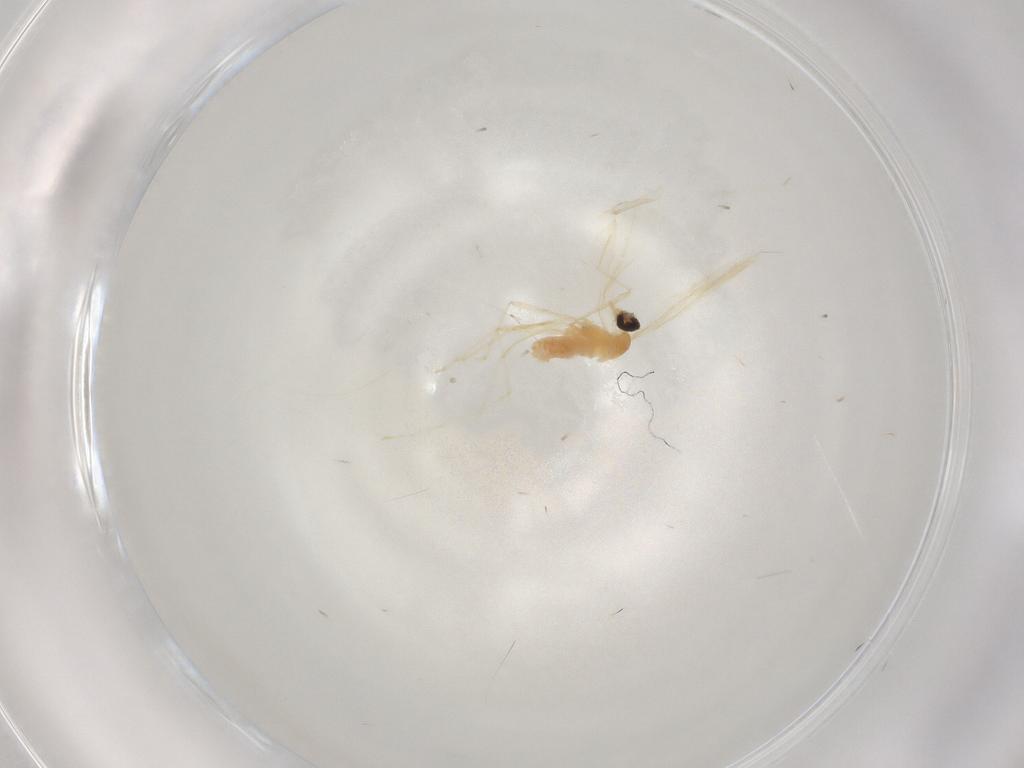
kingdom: Animalia
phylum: Arthropoda
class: Insecta
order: Diptera
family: Cecidomyiidae
